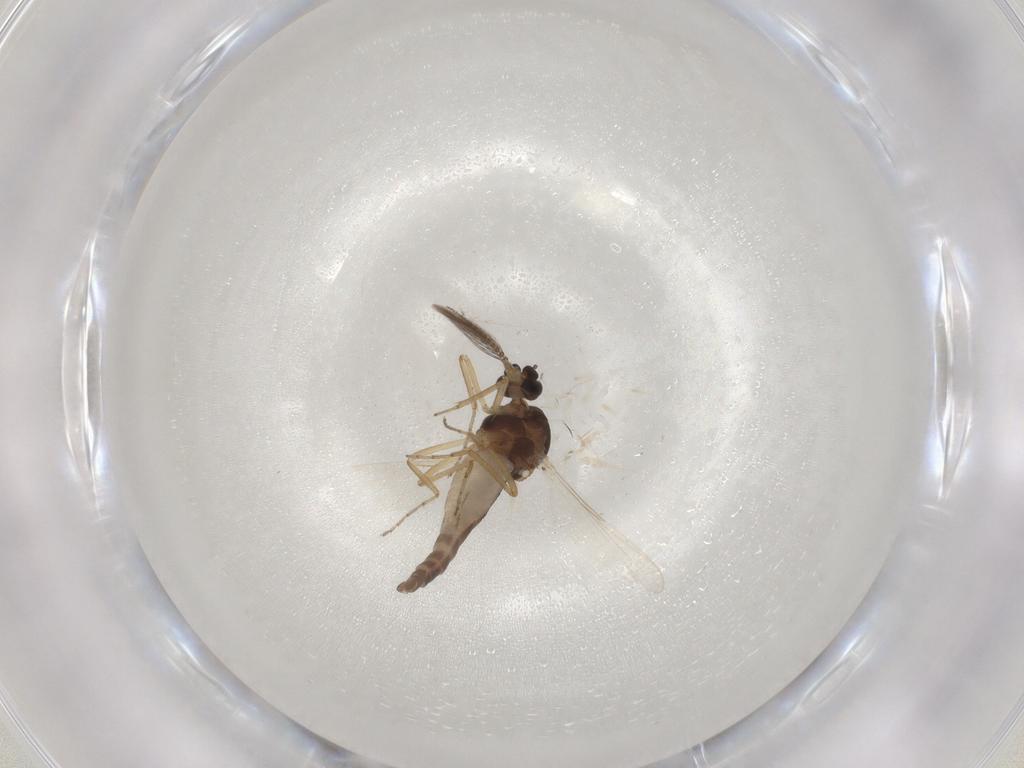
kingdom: Animalia
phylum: Arthropoda
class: Insecta
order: Diptera
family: Ceratopogonidae
